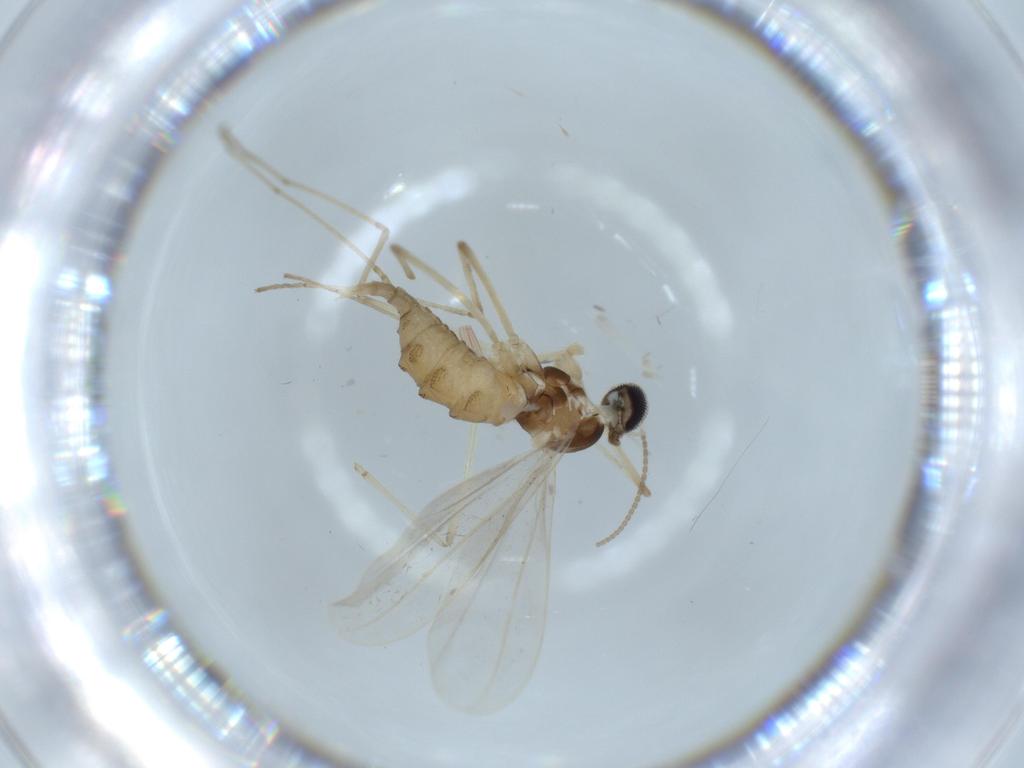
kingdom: Animalia
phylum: Arthropoda
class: Insecta
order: Diptera
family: Cecidomyiidae
